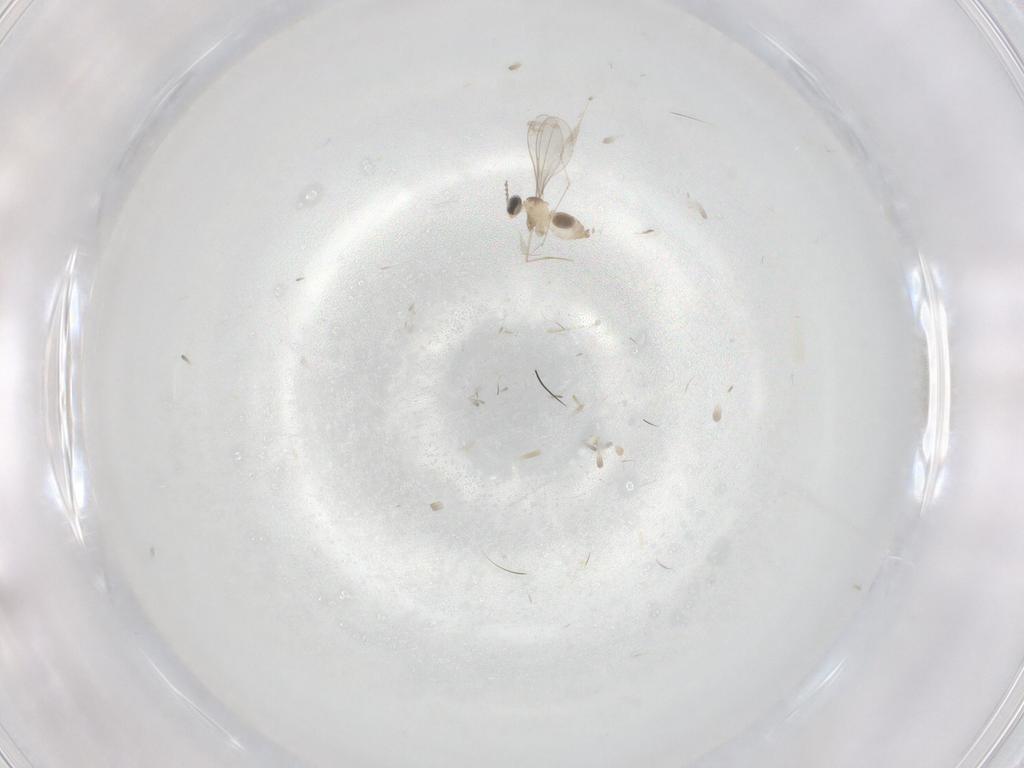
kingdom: Animalia
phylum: Arthropoda
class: Insecta
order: Diptera
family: Cecidomyiidae
